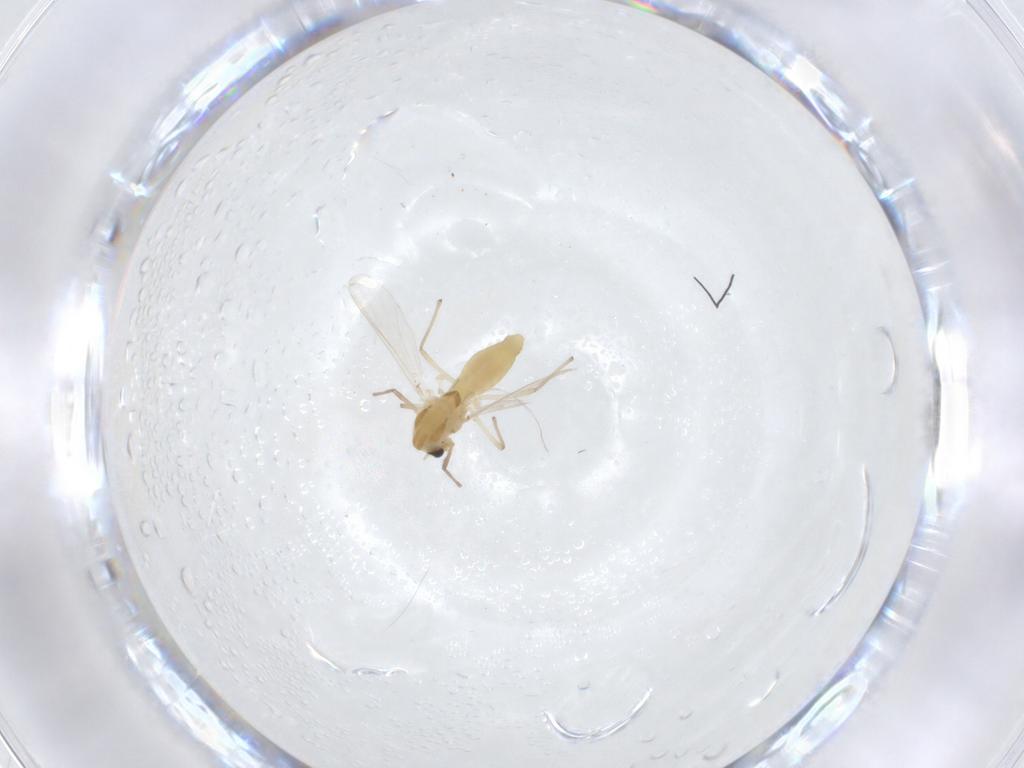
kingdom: Animalia
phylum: Arthropoda
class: Insecta
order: Diptera
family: Chironomidae
